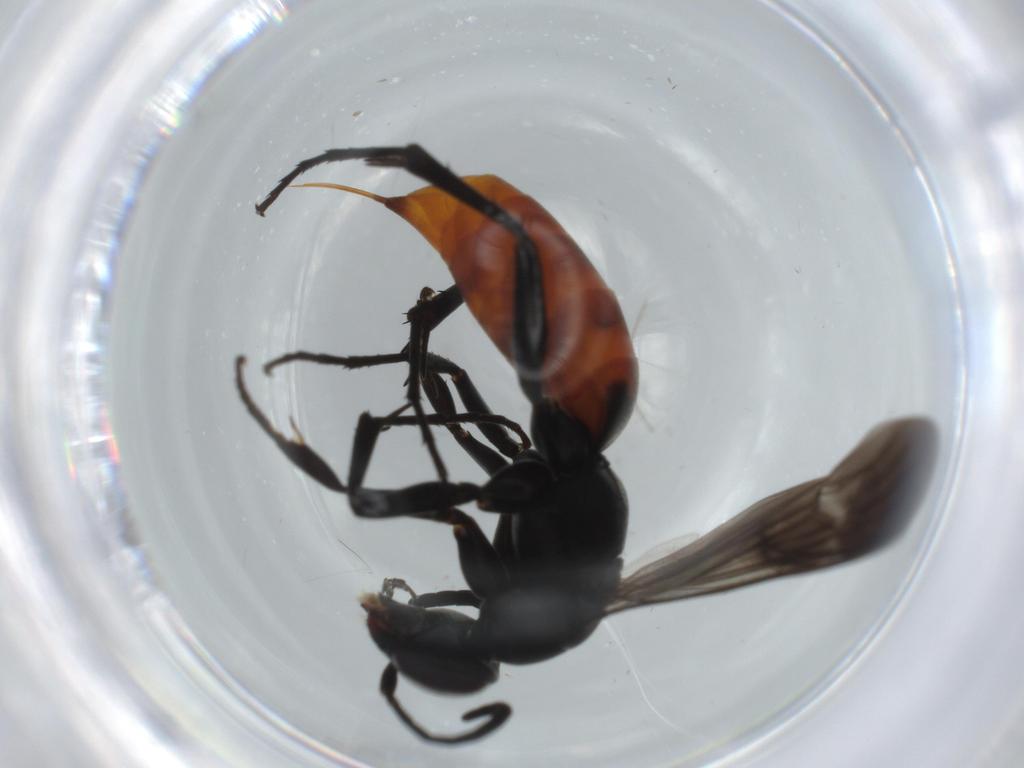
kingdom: Animalia
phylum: Arthropoda
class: Insecta
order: Hymenoptera
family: Pompilidae
